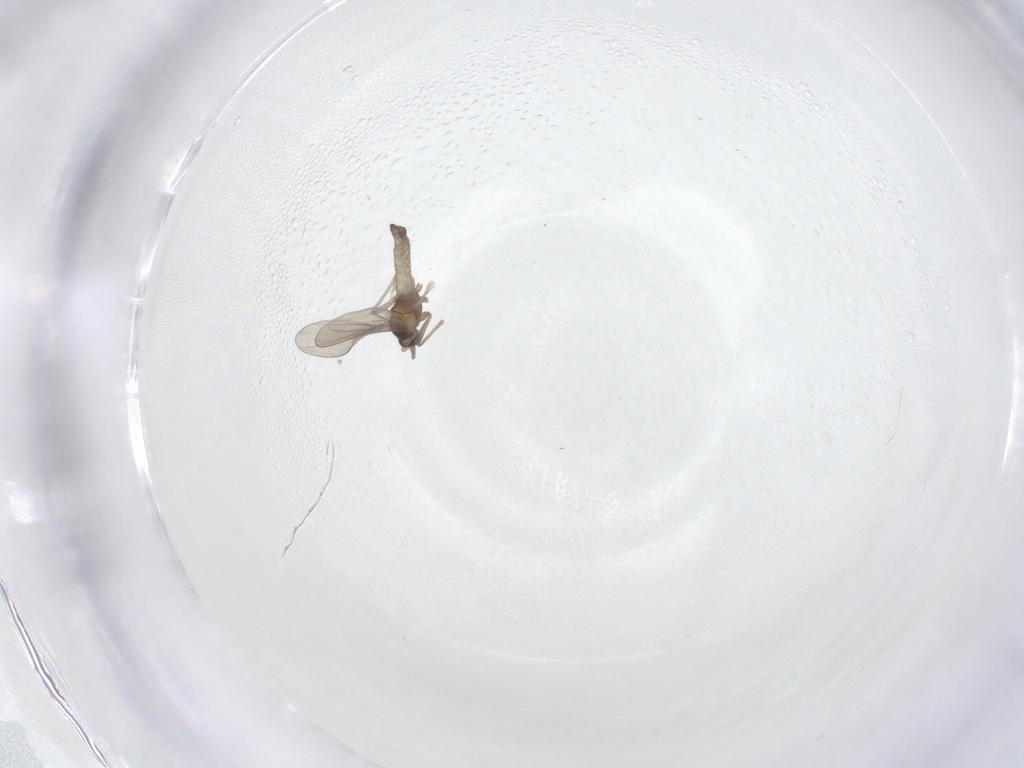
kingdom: Animalia
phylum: Arthropoda
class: Insecta
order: Diptera
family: Cecidomyiidae
